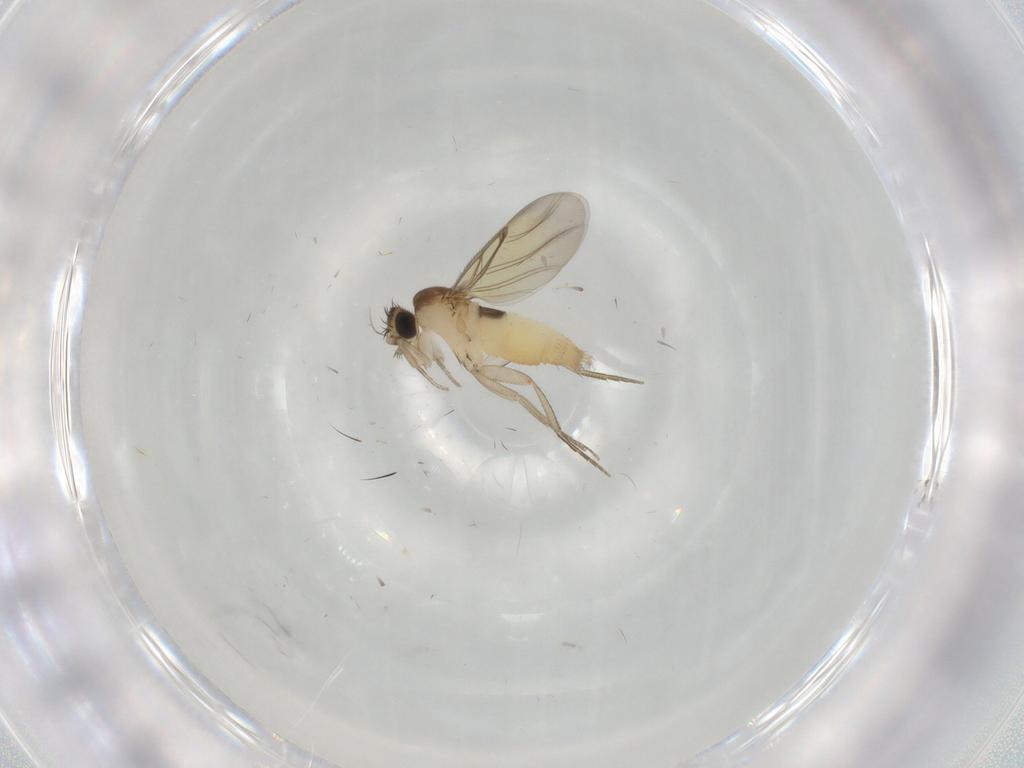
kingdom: Animalia
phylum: Arthropoda
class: Insecta
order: Diptera
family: Phoridae
